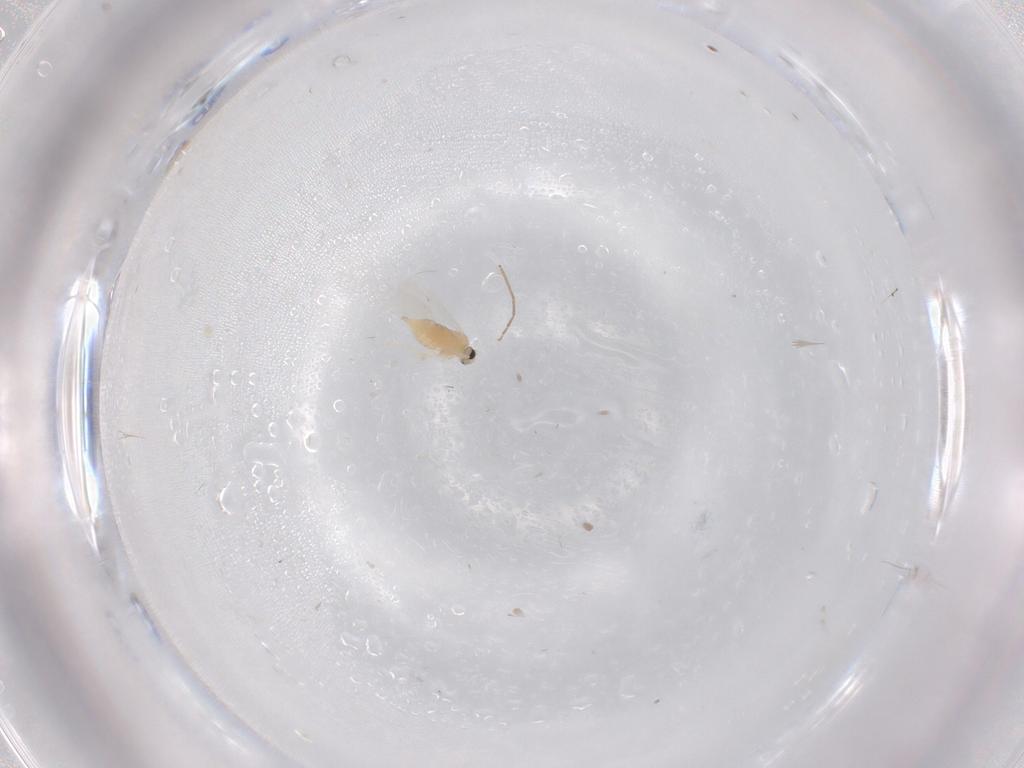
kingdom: Animalia
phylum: Arthropoda
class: Insecta
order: Diptera
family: Cecidomyiidae
